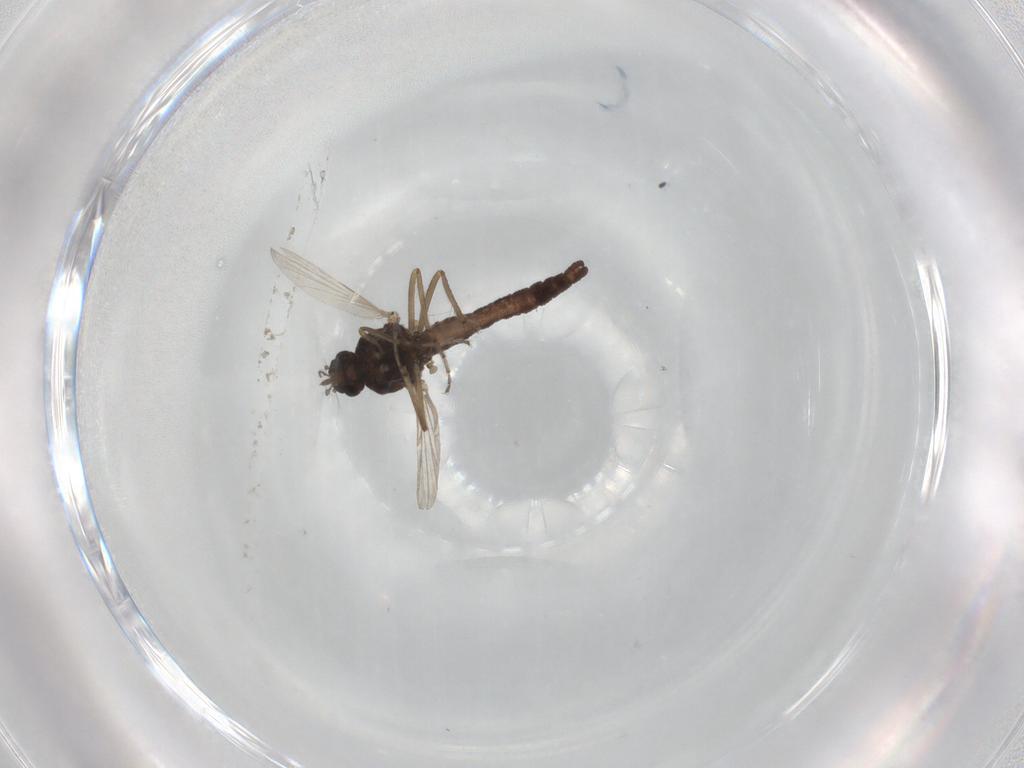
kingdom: Animalia
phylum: Arthropoda
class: Insecta
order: Diptera
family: Ceratopogonidae
